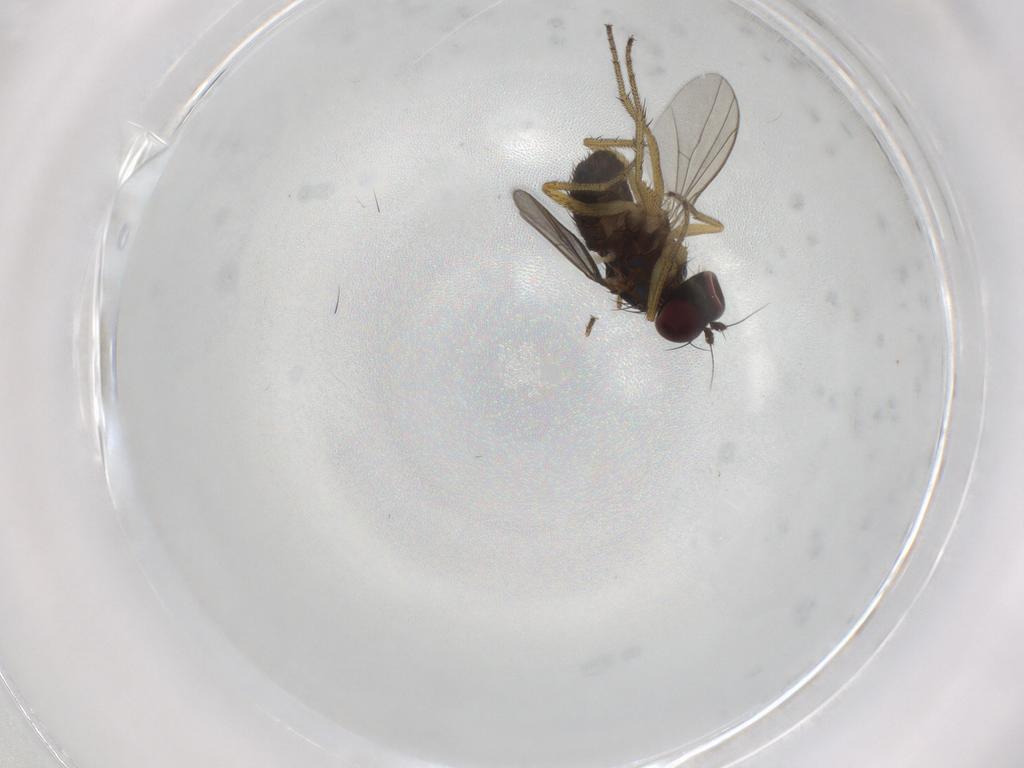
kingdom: Animalia
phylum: Arthropoda
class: Insecta
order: Diptera
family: Dolichopodidae
